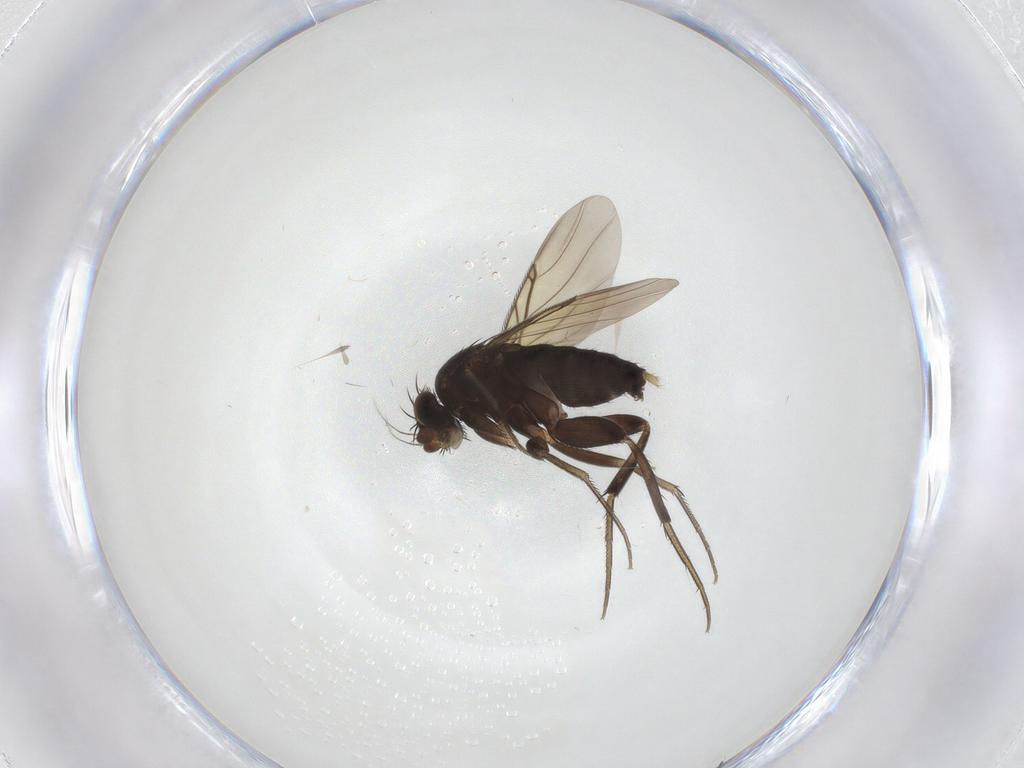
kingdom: Animalia
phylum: Arthropoda
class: Insecta
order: Diptera
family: Phoridae
